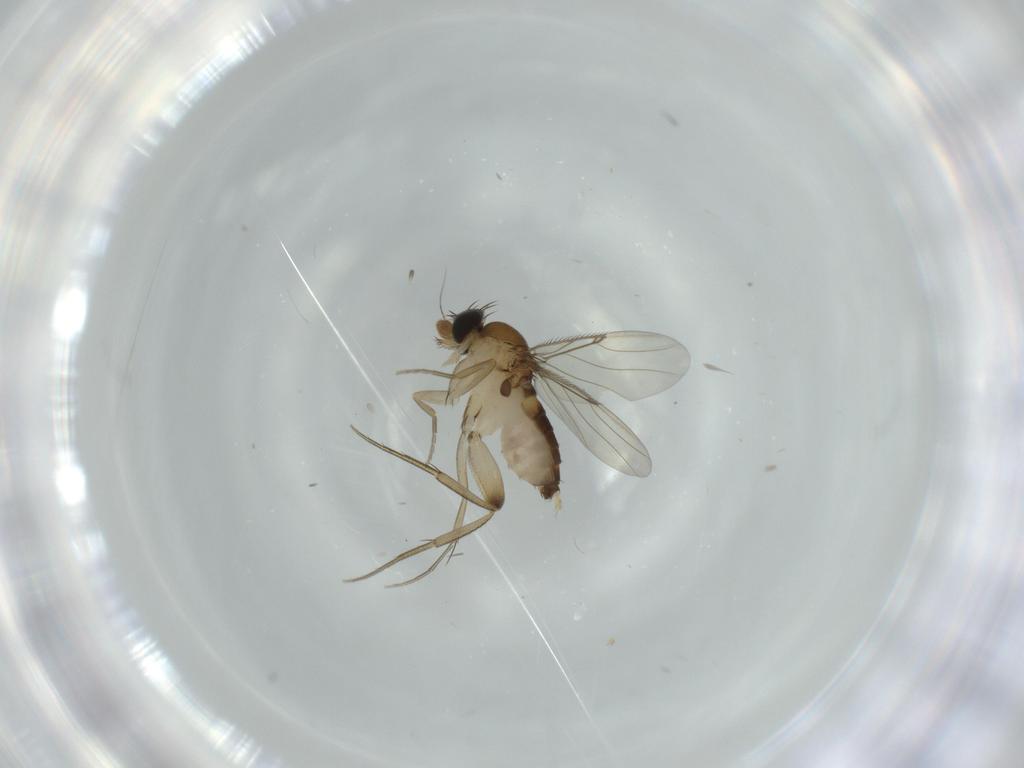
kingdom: Animalia
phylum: Arthropoda
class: Insecta
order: Diptera
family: Phoridae
